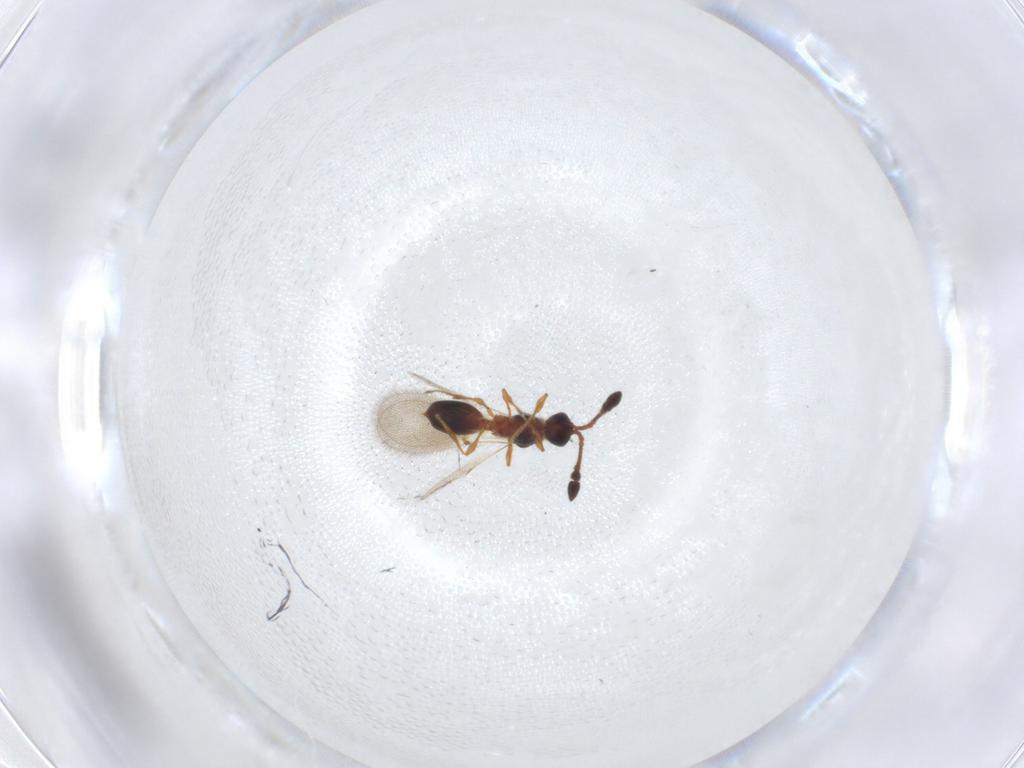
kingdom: Animalia
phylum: Arthropoda
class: Insecta
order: Hymenoptera
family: Diapriidae
